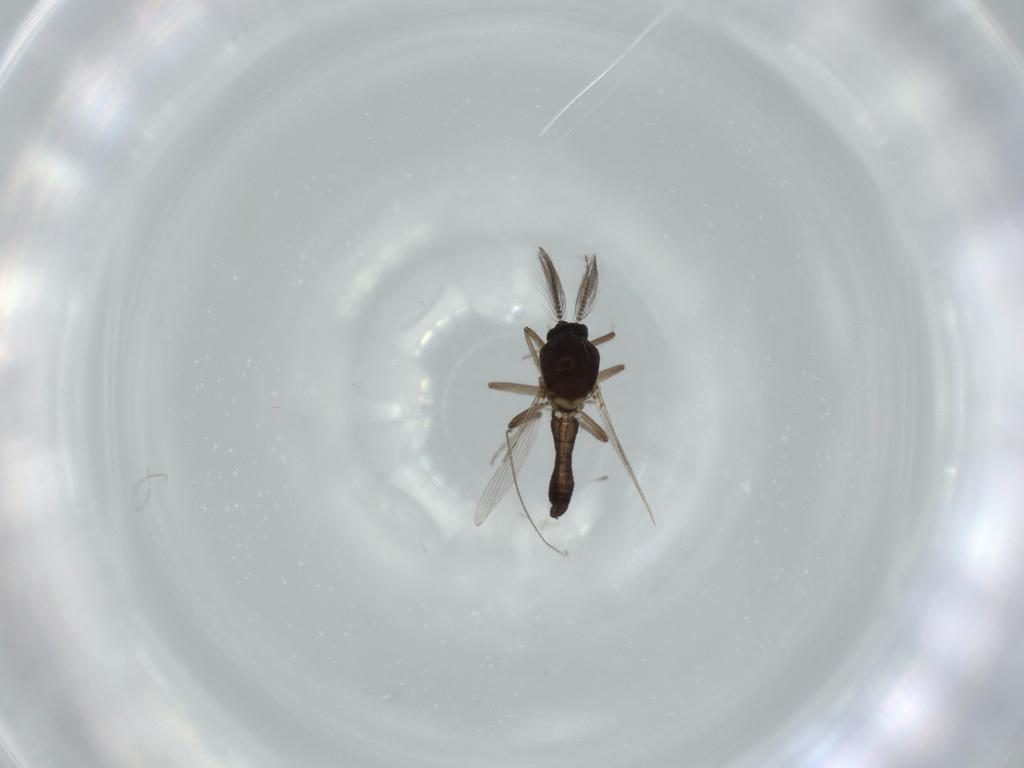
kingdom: Animalia
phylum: Arthropoda
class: Insecta
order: Diptera
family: Ceratopogonidae
